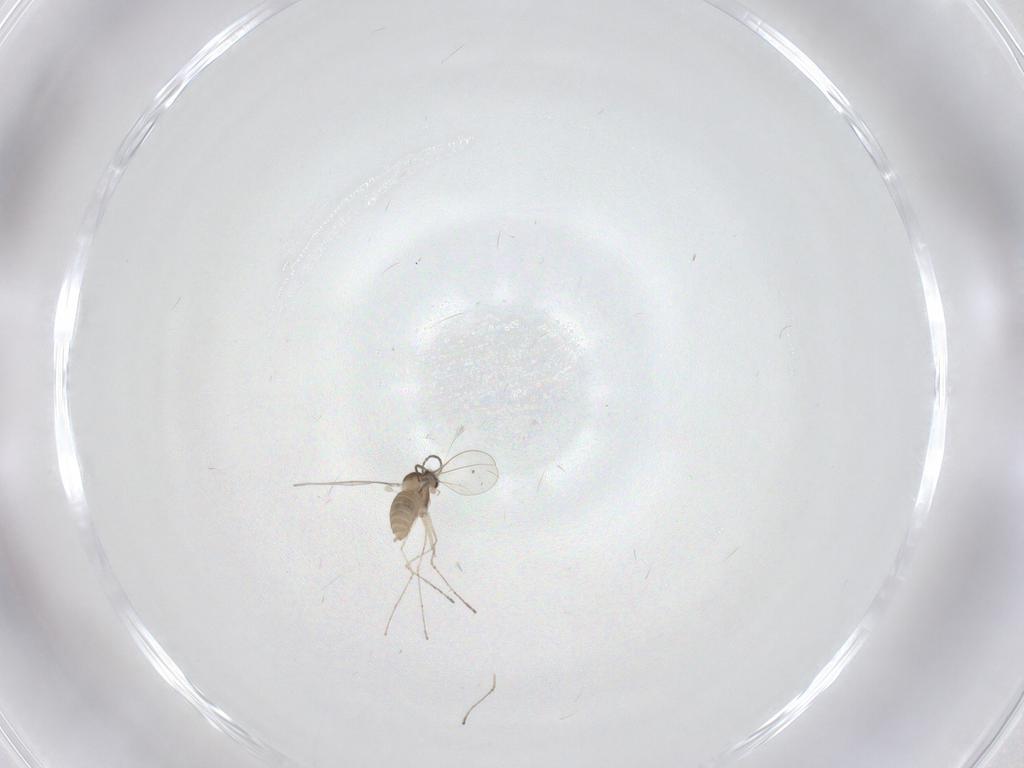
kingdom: Animalia
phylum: Arthropoda
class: Insecta
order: Diptera
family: Cecidomyiidae
